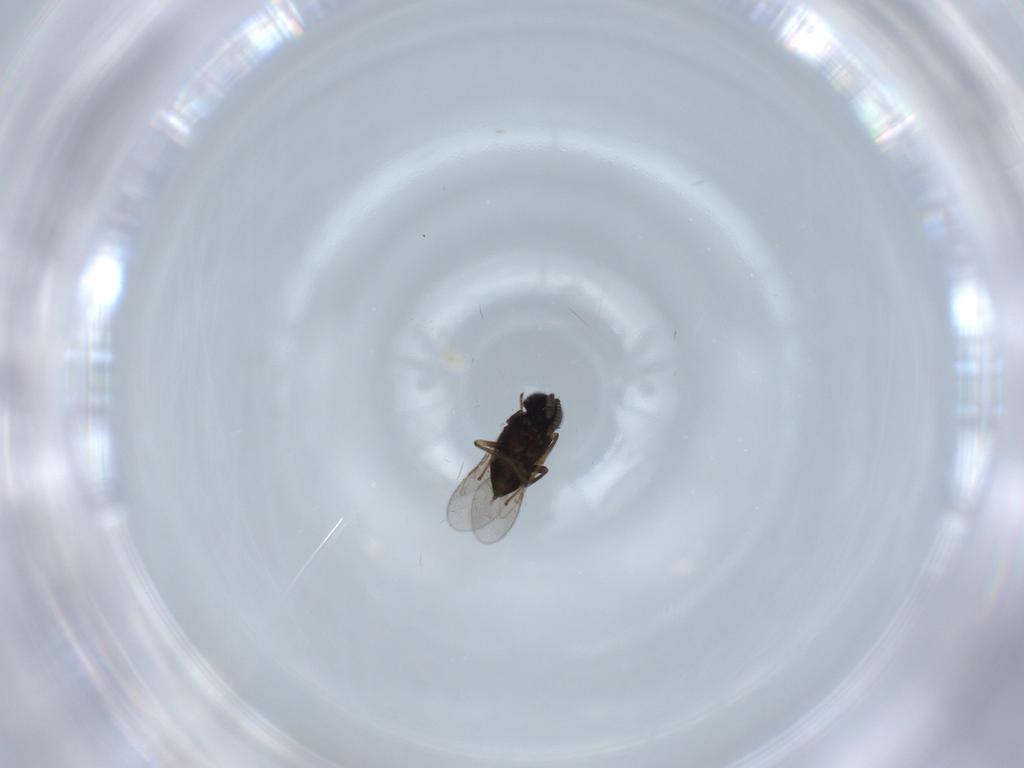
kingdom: Animalia
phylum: Arthropoda
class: Insecta
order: Hymenoptera
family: Encyrtidae
